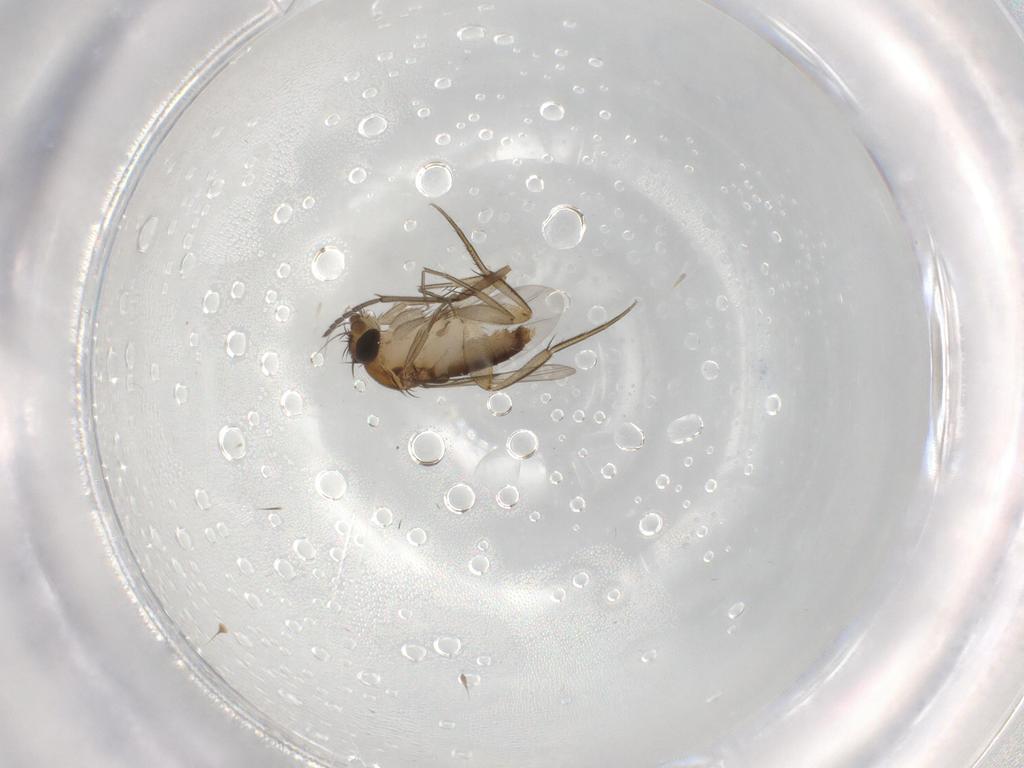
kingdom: Animalia
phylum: Arthropoda
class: Insecta
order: Diptera
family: Phoridae
